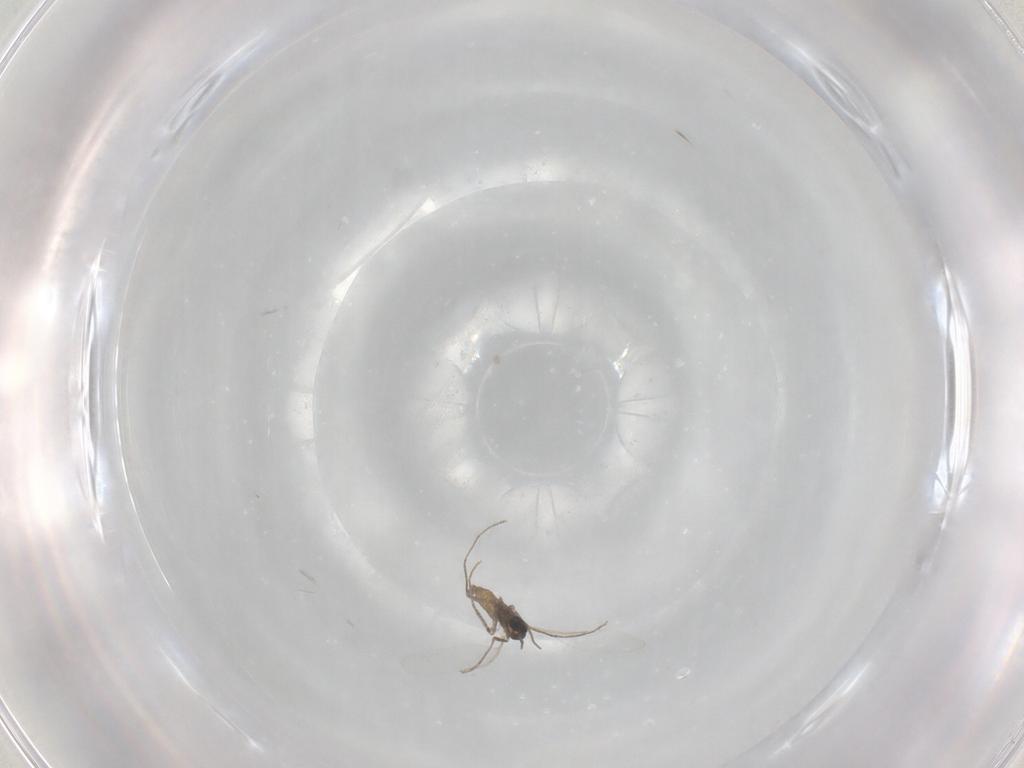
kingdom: Animalia
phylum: Arthropoda
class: Insecta
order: Diptera
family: Cecidomyiidae
